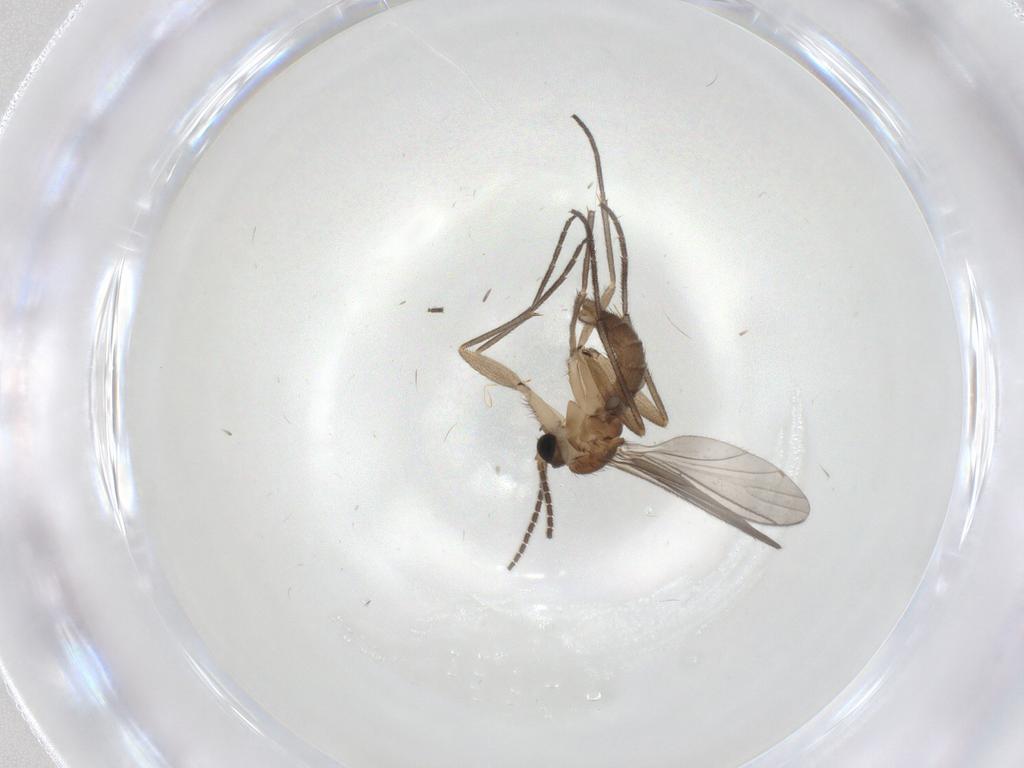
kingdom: Animalia
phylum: Arthropoda
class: Insecta
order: Diptera
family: Sciaridae
